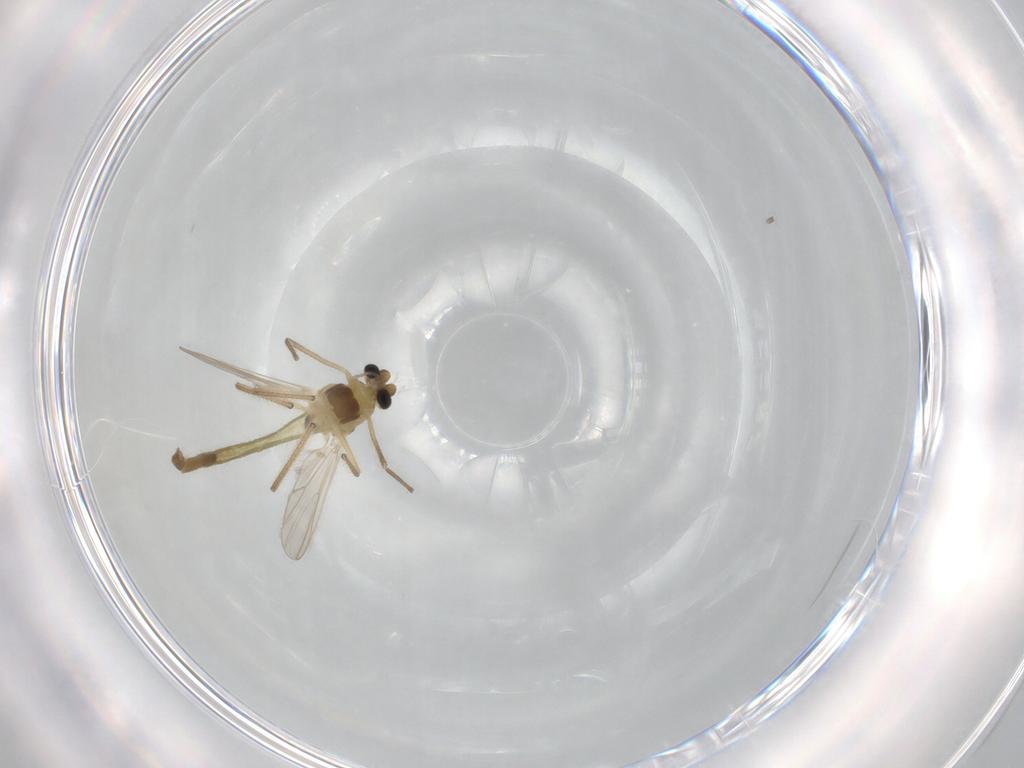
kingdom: Animalia
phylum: Arthropoda
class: Insecta
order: Diptera
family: Chironomidae
